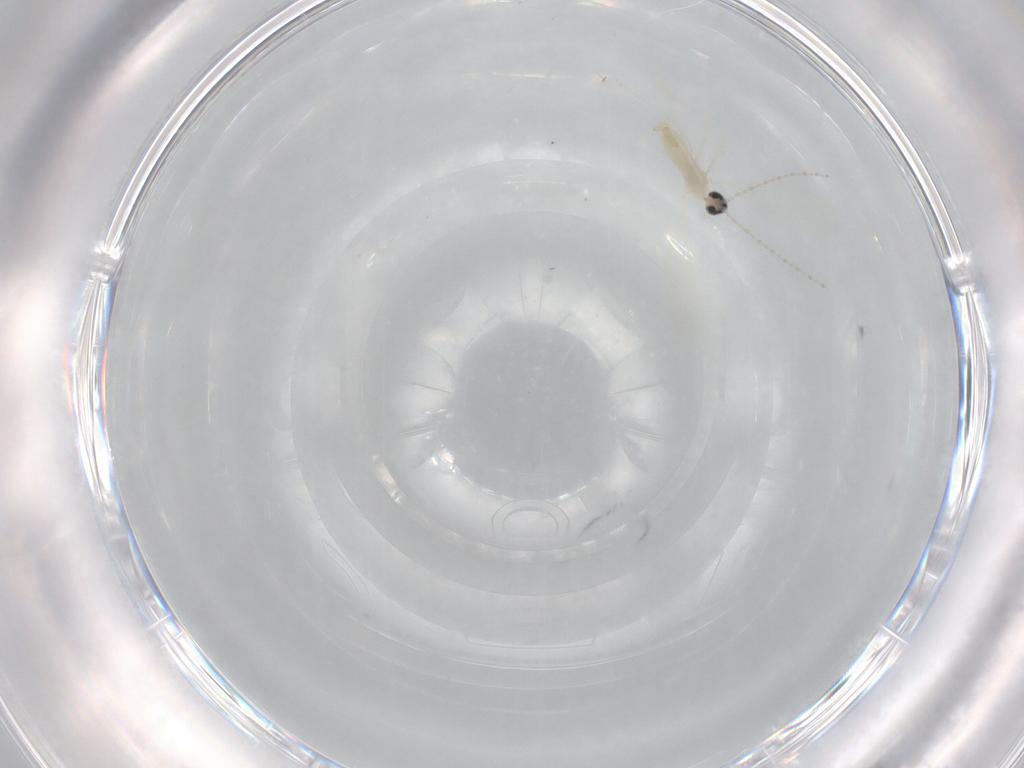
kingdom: Animalia
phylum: Arthropoda
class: Insecta
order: Diptera
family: Cecidomyiidae
